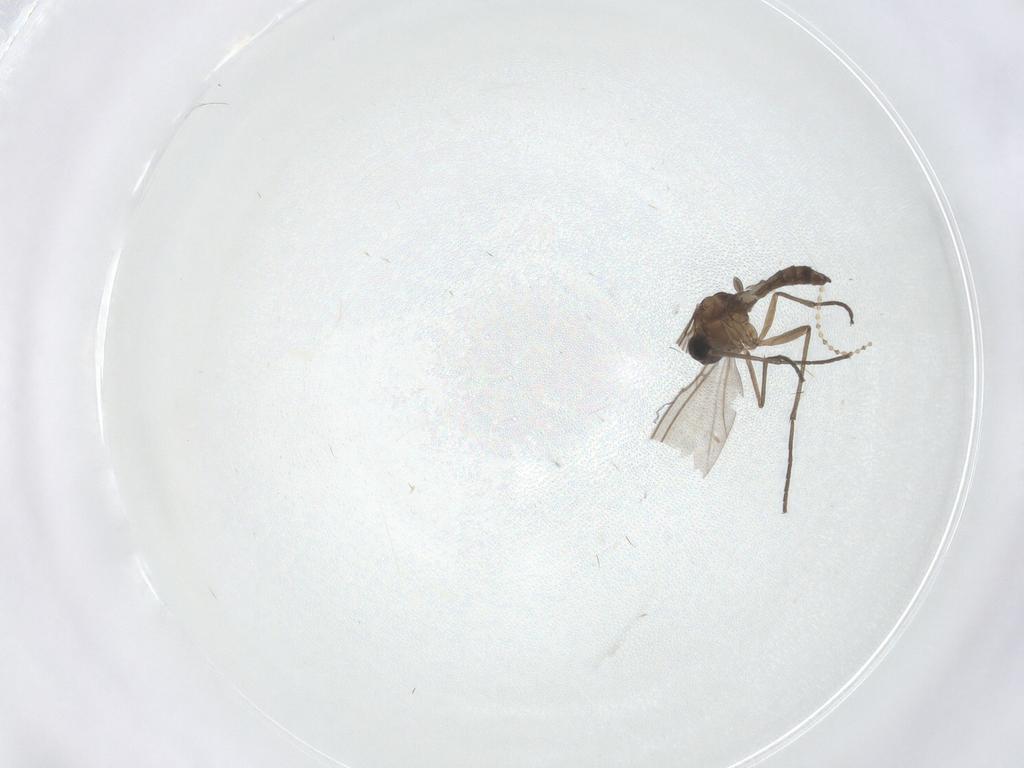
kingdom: Animalia
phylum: Arthropoda
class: Insecta
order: Diptera
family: Sciaridae
